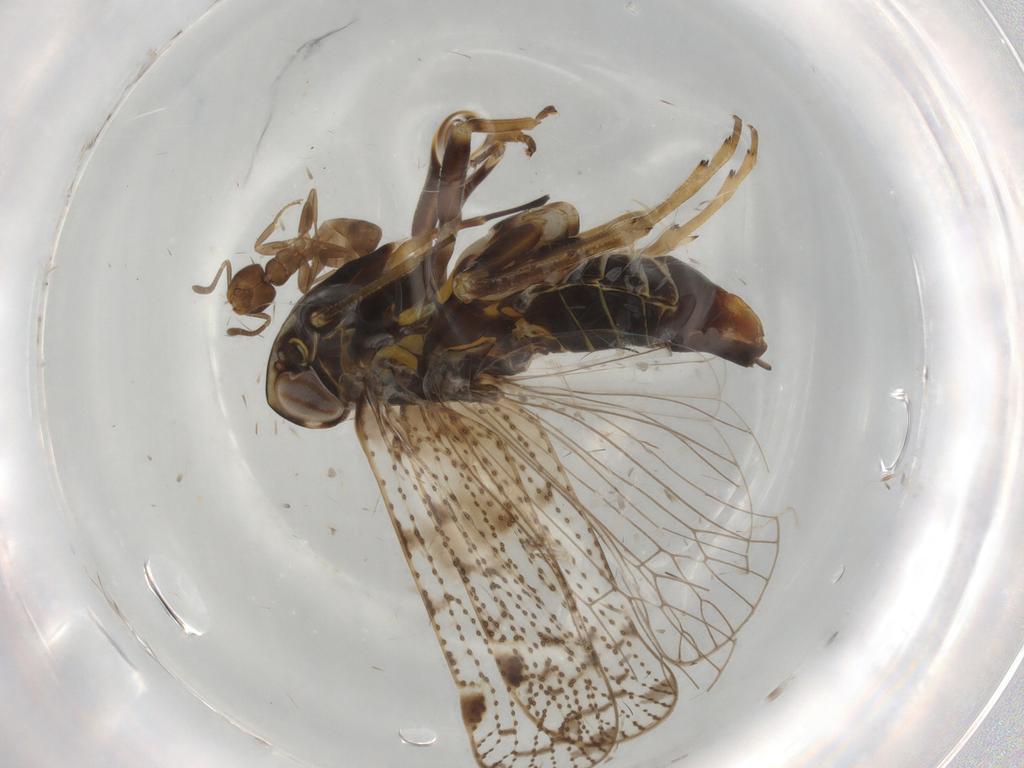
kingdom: Animalia
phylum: Arthropoda
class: Insecta
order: Hemiptera
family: Cixiidae
